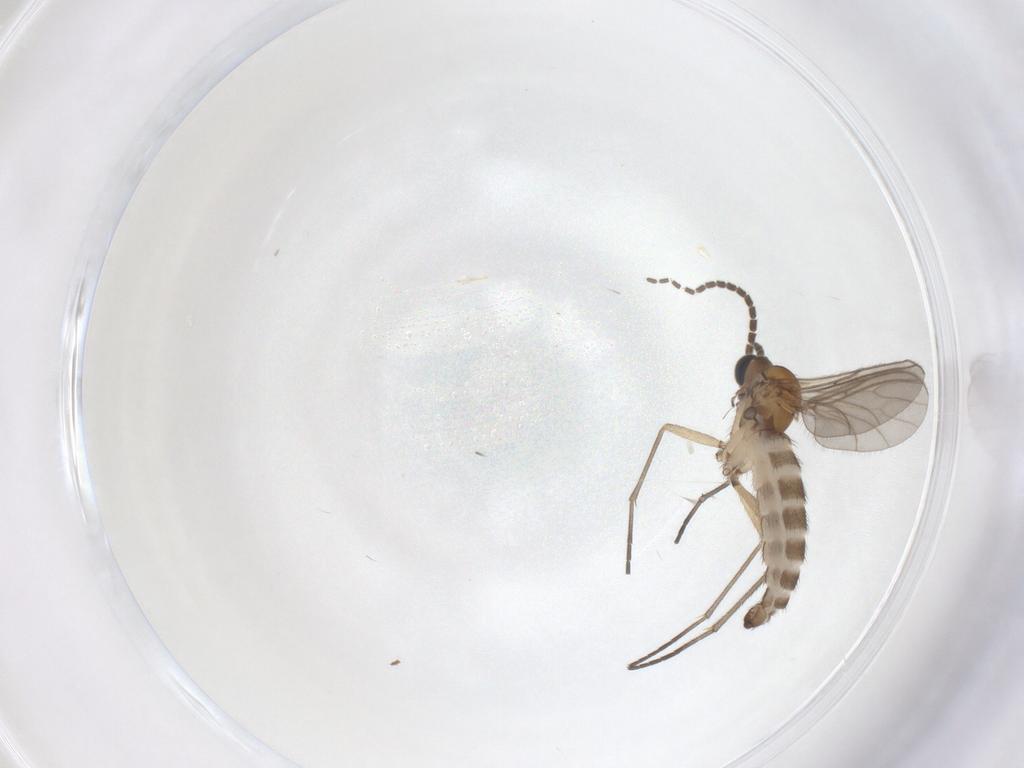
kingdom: Animalia
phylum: Arthropoda
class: Insecta
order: Diptera
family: Sciaridae
